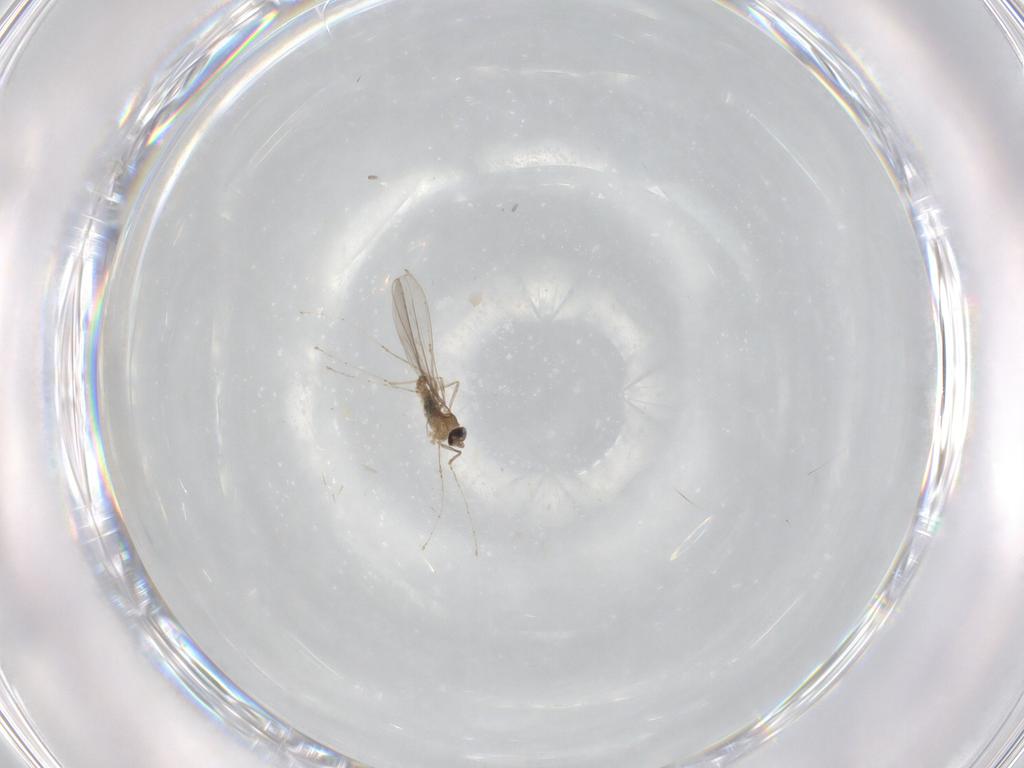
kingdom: Animalia
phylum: Arthropoda
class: Insecta
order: Diptera
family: Cecidomyiidae
